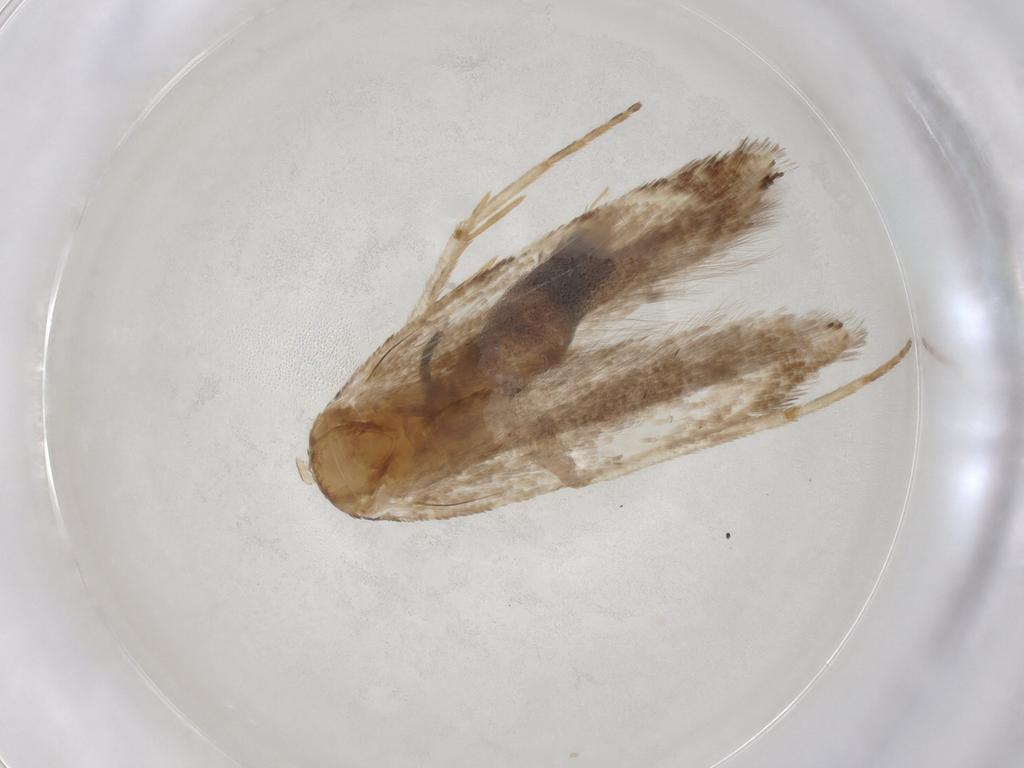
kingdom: Animalia
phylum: Arthropoda
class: Insecta
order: Lepidoptera
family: Gelechiidae
